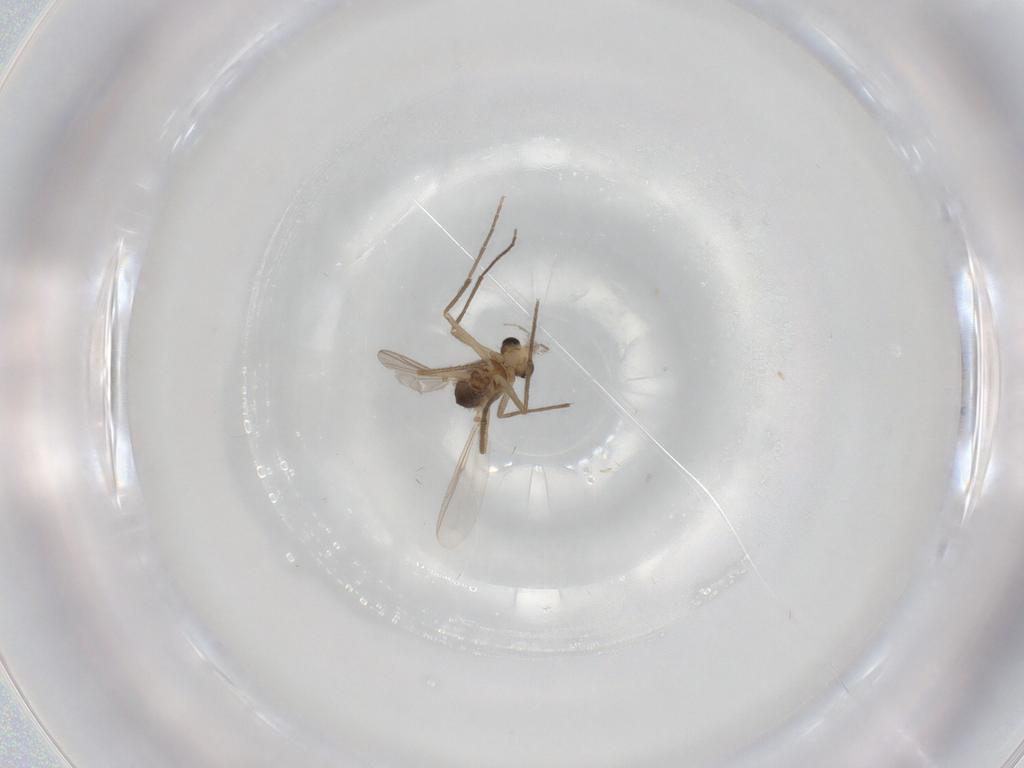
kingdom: Animalia
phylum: Arthropoda
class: Insecta
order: Diptera
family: Chironomidae
